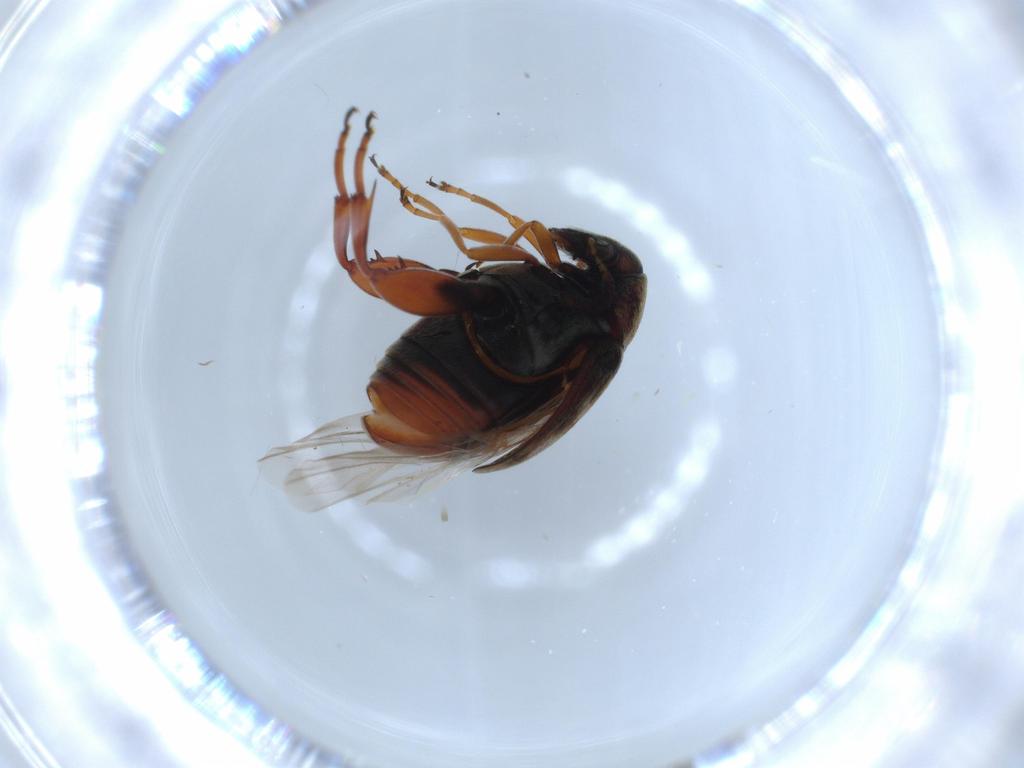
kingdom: Animalia
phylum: Arthropoda
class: Insecta
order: Coleoptera
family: Chrysomelidae
